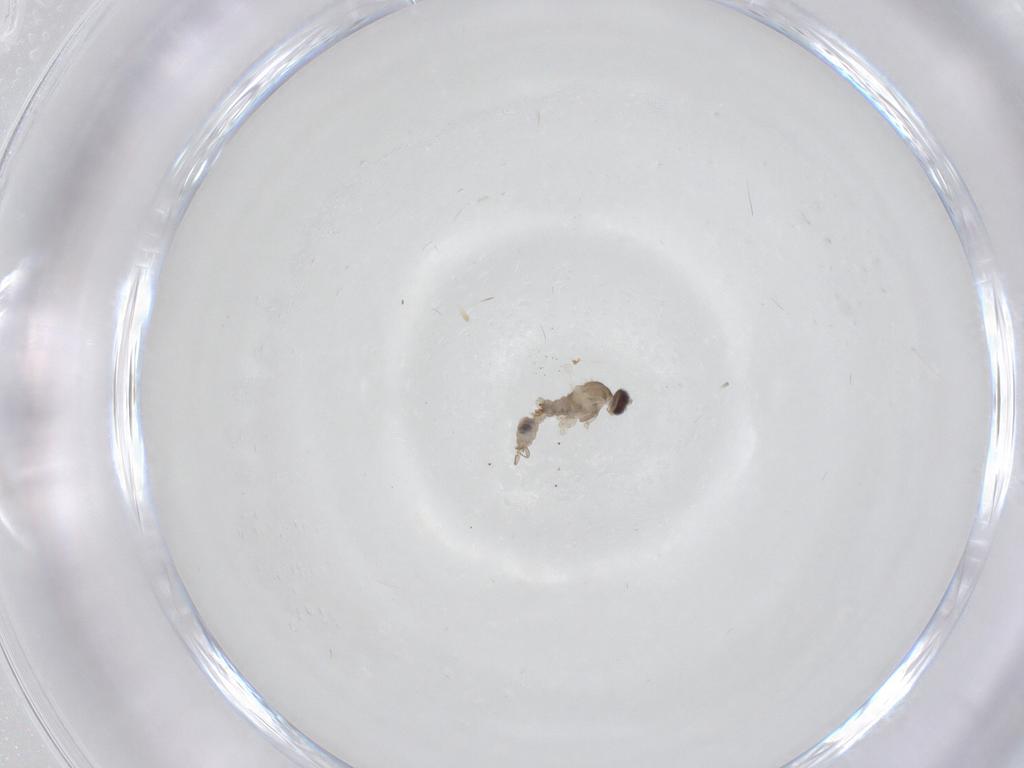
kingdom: Animalia
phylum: Arthropoda
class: Insecta
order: Diptera
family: Cecidomyiidae
